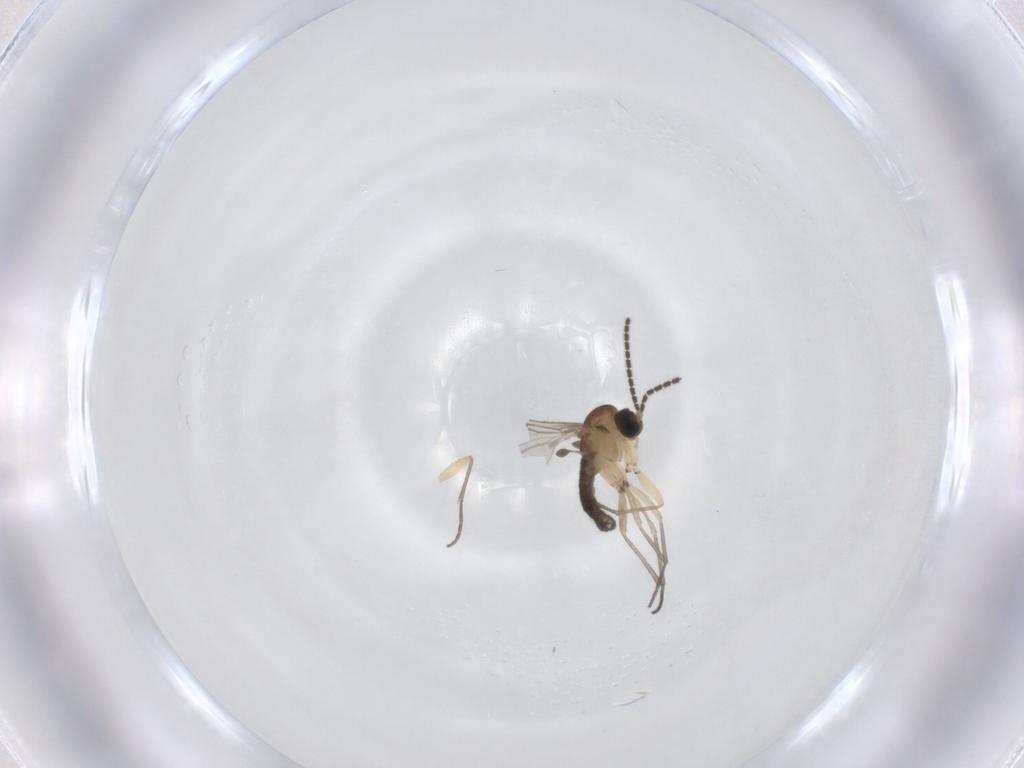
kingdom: Animalia
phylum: Arthropoda
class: Insecta
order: Diptera
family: Sciaridae
